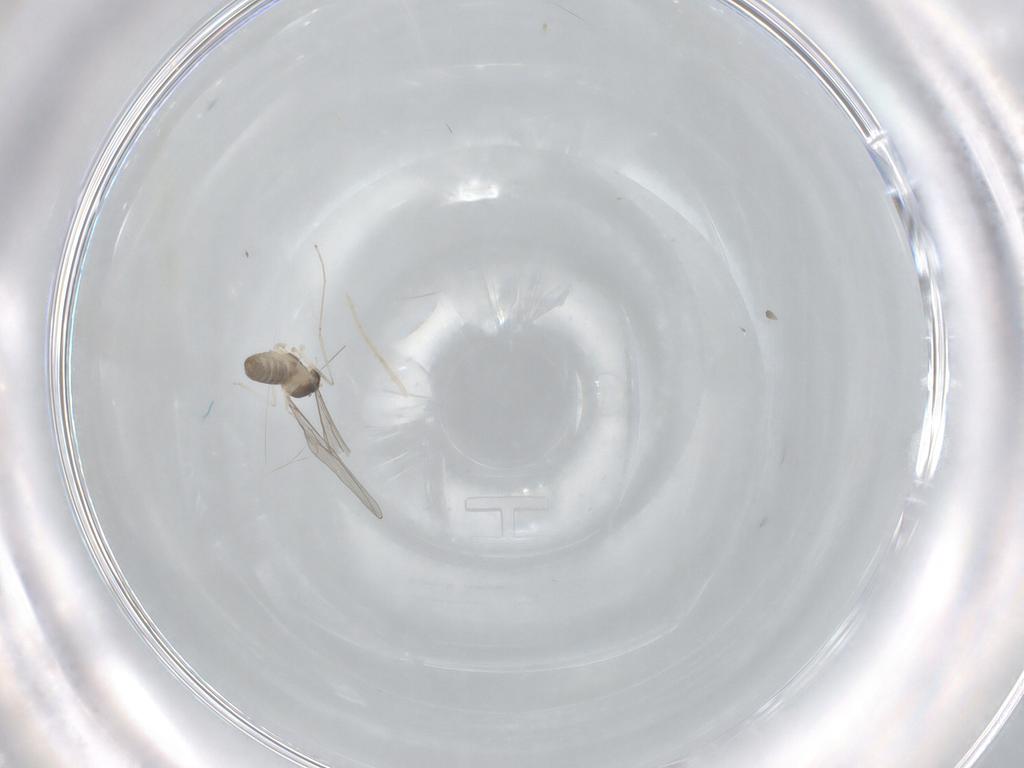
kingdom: Animalia
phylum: Arthropoda
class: Insecta
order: Diptera
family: Cecidomyiidae
